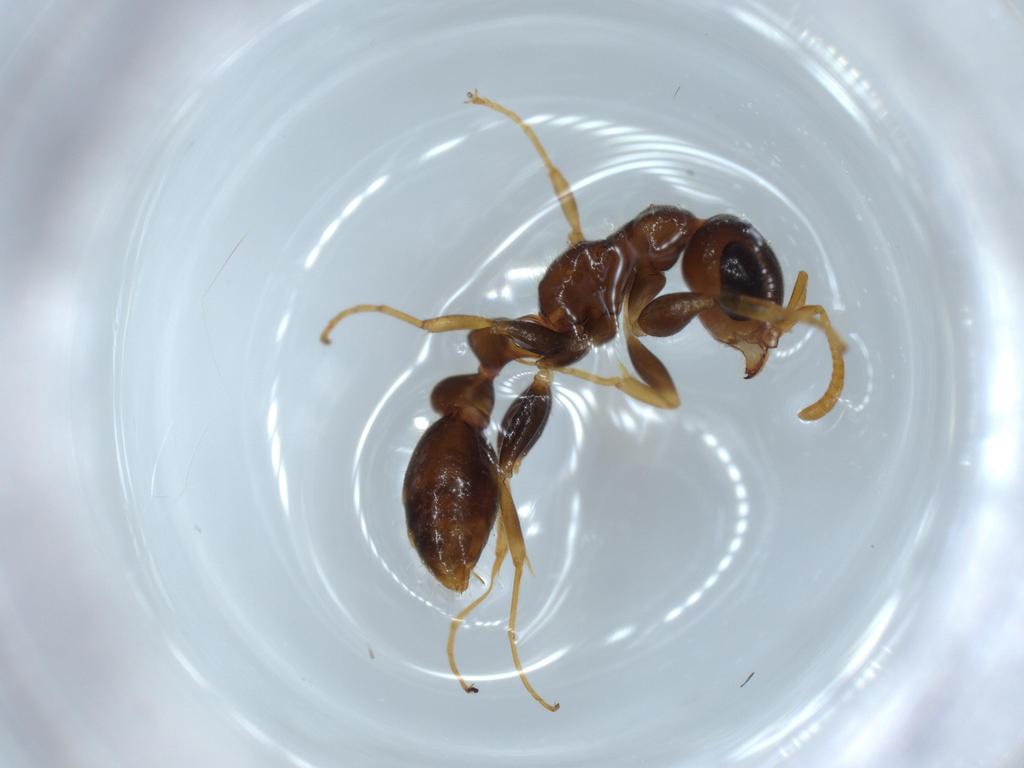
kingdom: Animalia
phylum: Arthropoda
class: Insecta
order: Hymenoptera
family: Formicidae
